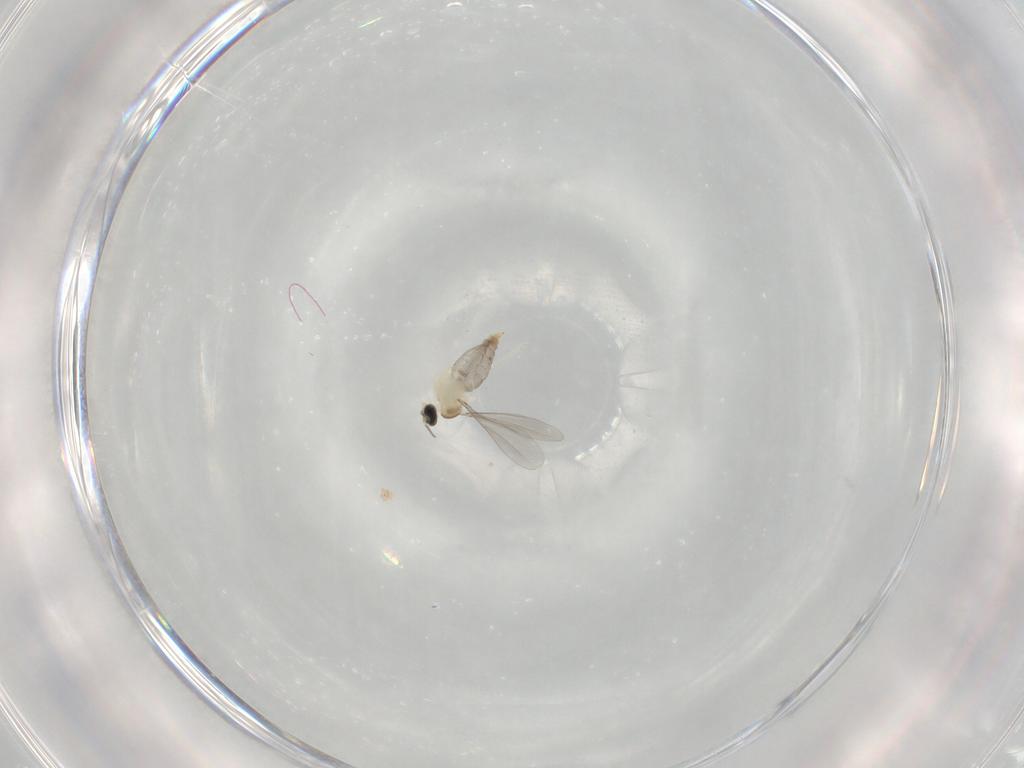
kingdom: Animalia
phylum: Arthropoda
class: Insecta
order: Diptera
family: Cecidomyiidae
